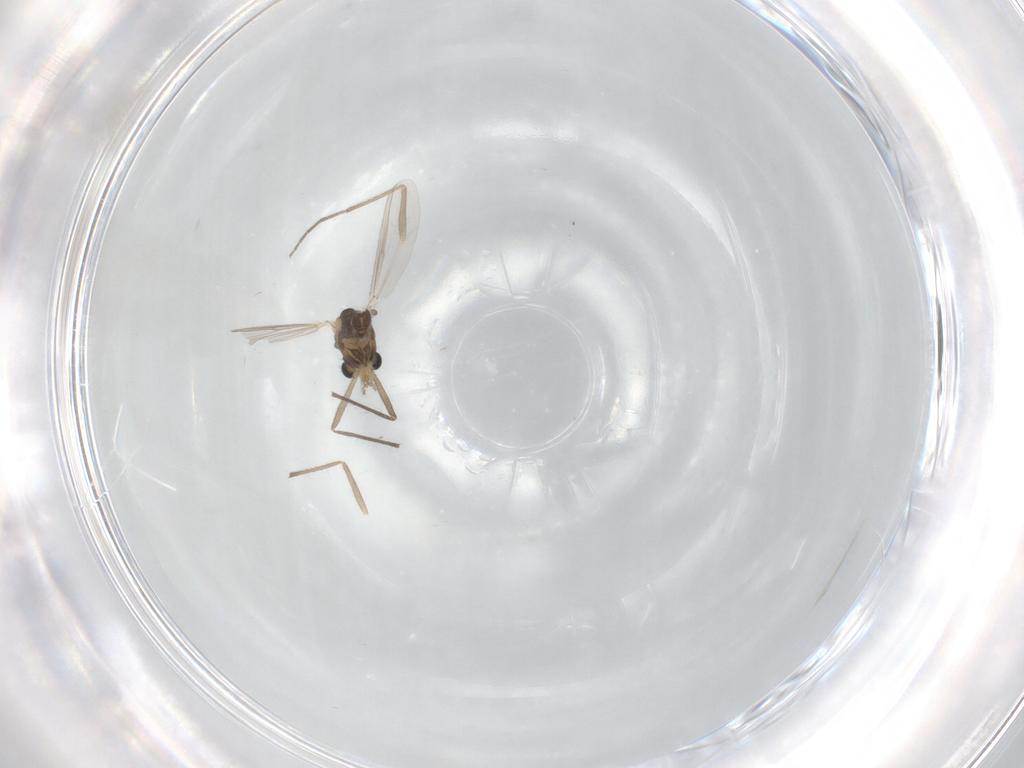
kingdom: Animalia
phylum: Arthropoda
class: Insecta
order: Diptera
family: Chironomidae
